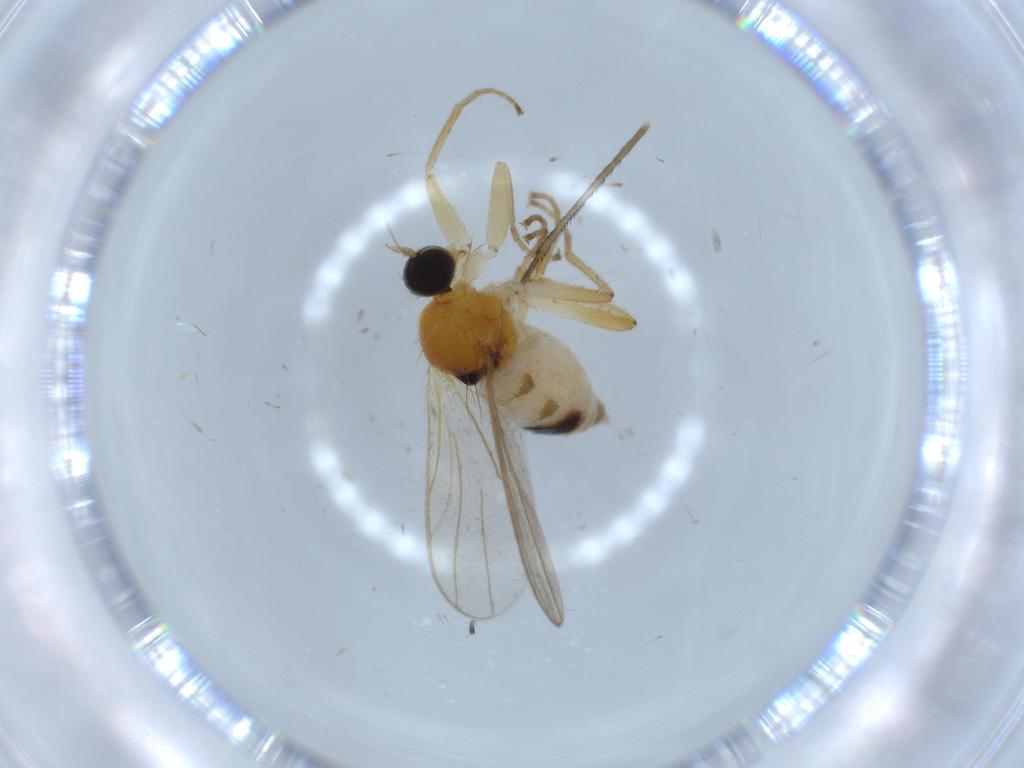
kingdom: Animalia
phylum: Arthropoda
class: Insecta
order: Diptera
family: Hybotidae
